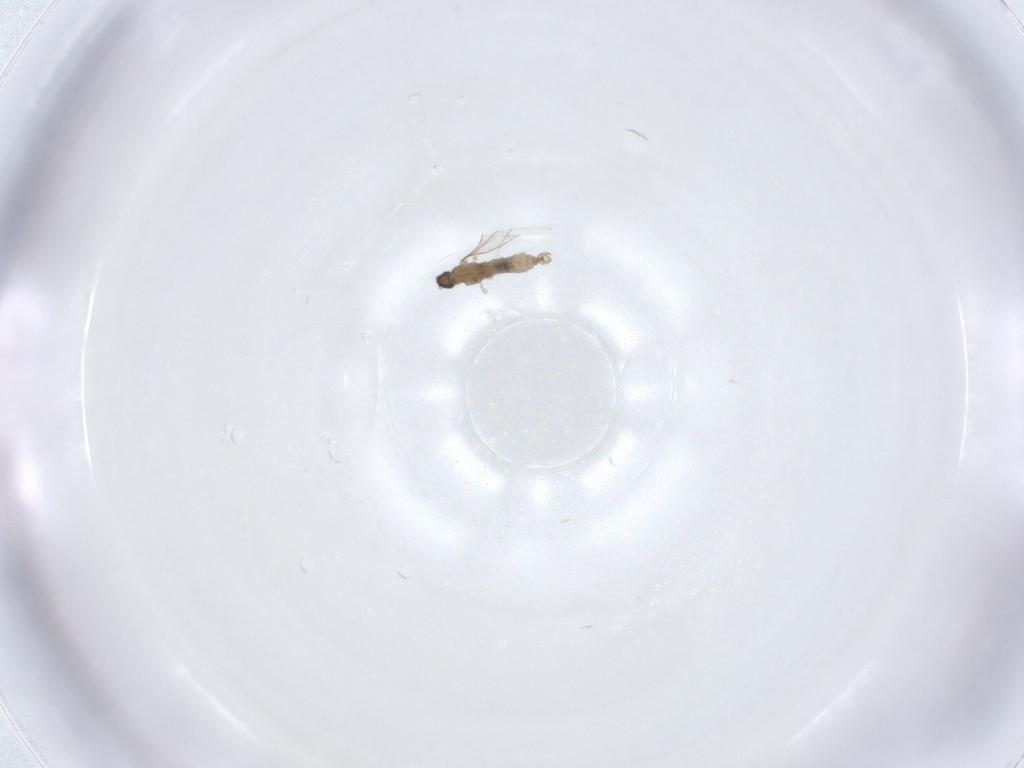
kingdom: Animalia
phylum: Arthropoda
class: Insecta
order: Diptera
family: Cecidomyiidae
